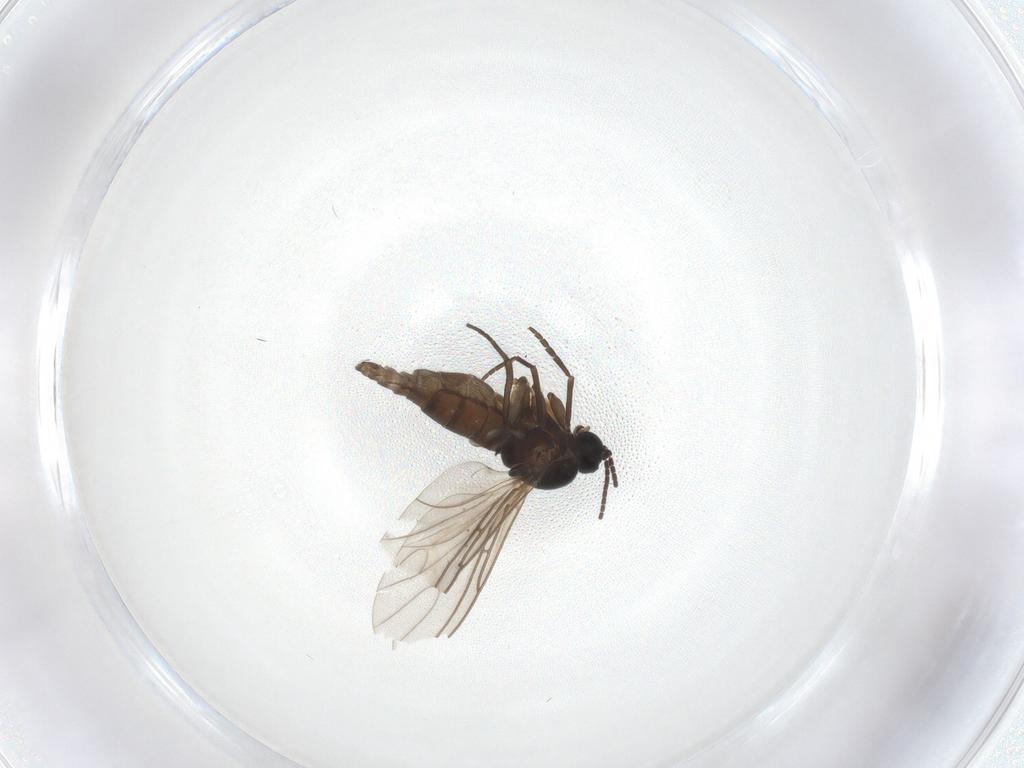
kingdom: Animalia
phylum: Arthropoda
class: Insecta
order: Diptera
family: Sciaridae
